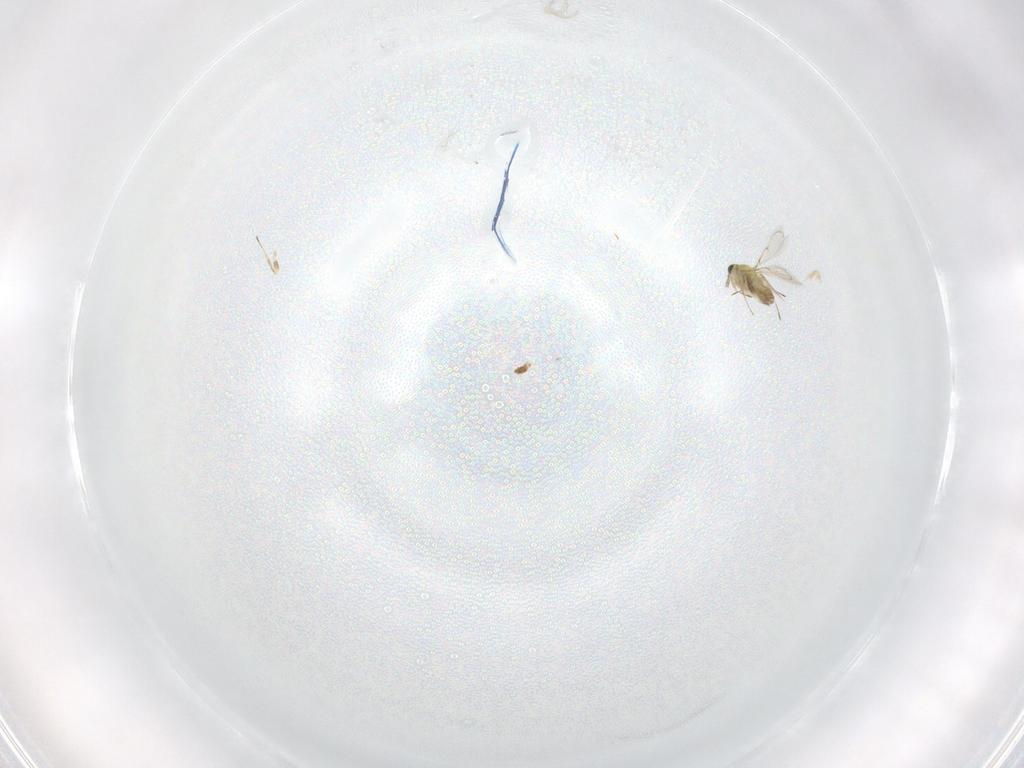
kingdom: Animalia
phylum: Arthropoda
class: Insecta
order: Hymenoptera
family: Trichogrammatidae
